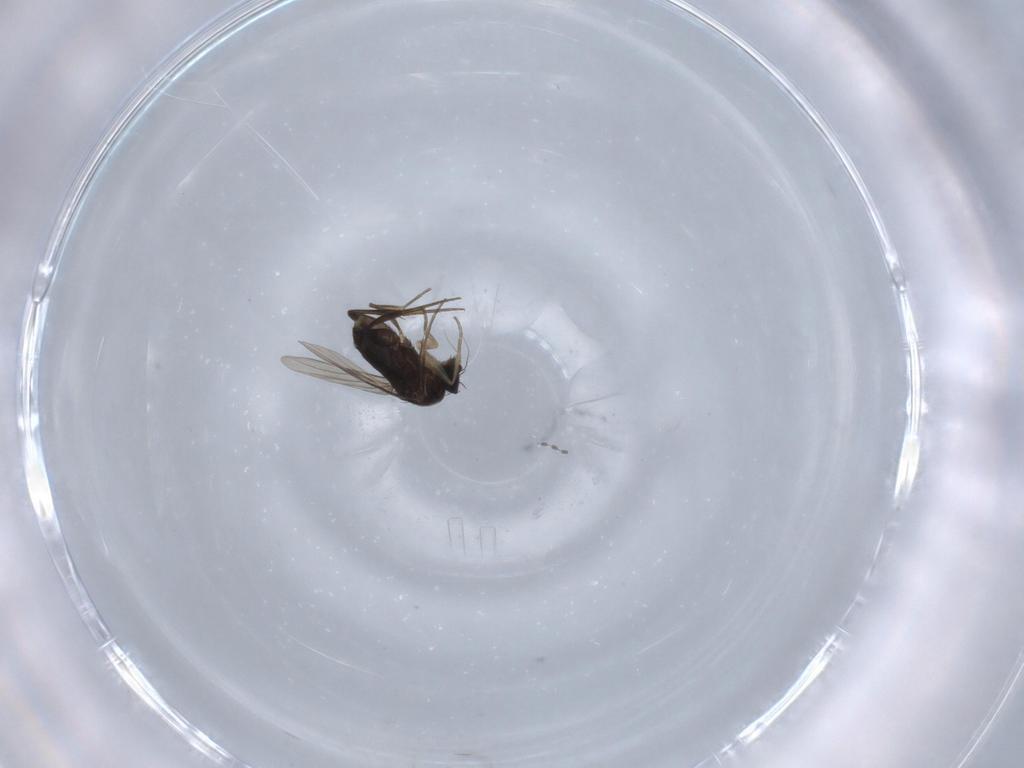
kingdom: Animalia
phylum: Arthropoda
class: Insecta
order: Diptera
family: Phoridae
